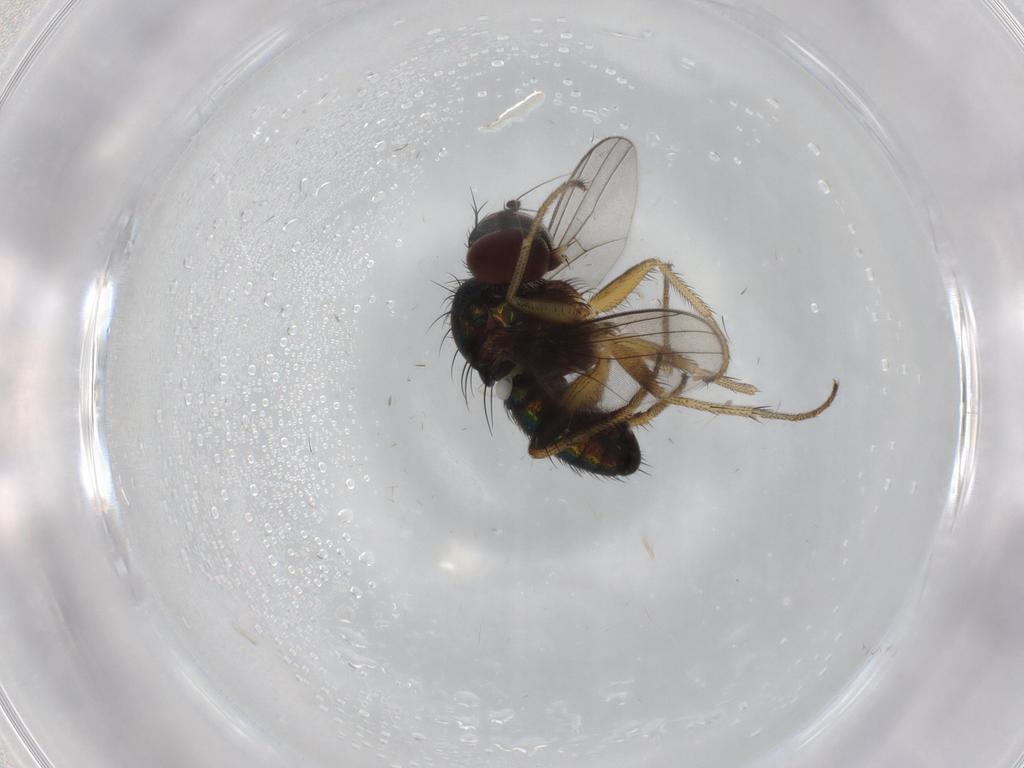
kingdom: Animalia
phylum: Arthropoda
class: Insecta
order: Diptera
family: Dolichopodidae
